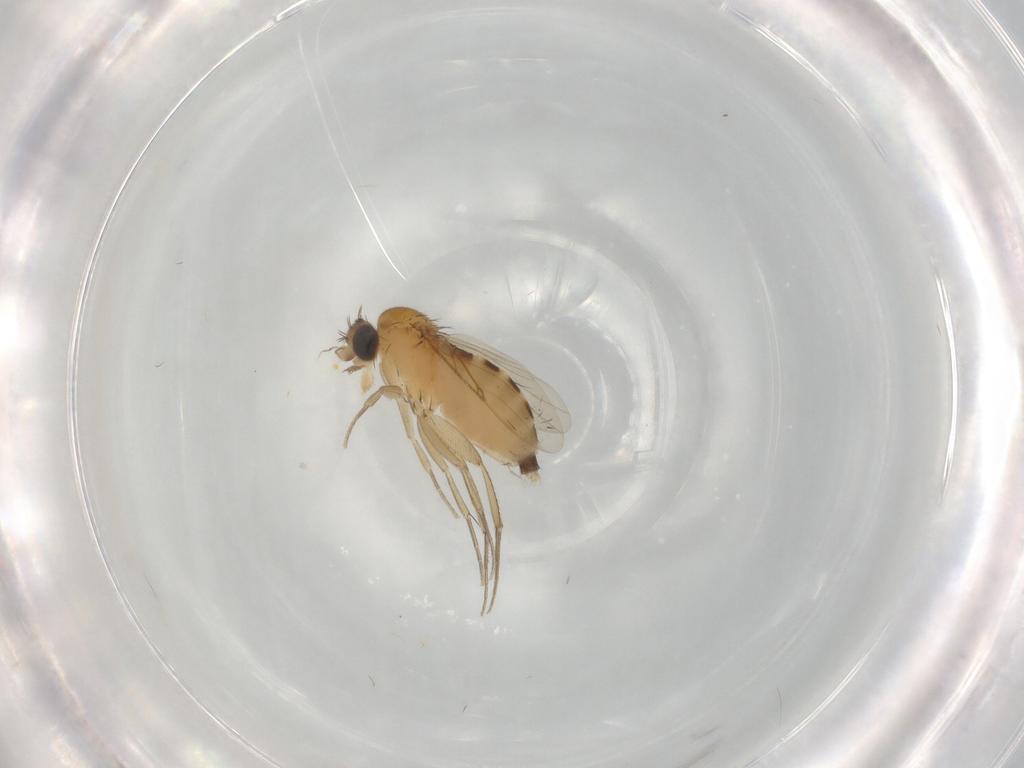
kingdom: Animalia
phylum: Arthropoda
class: Insecta
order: Diptera
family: Phoridae
